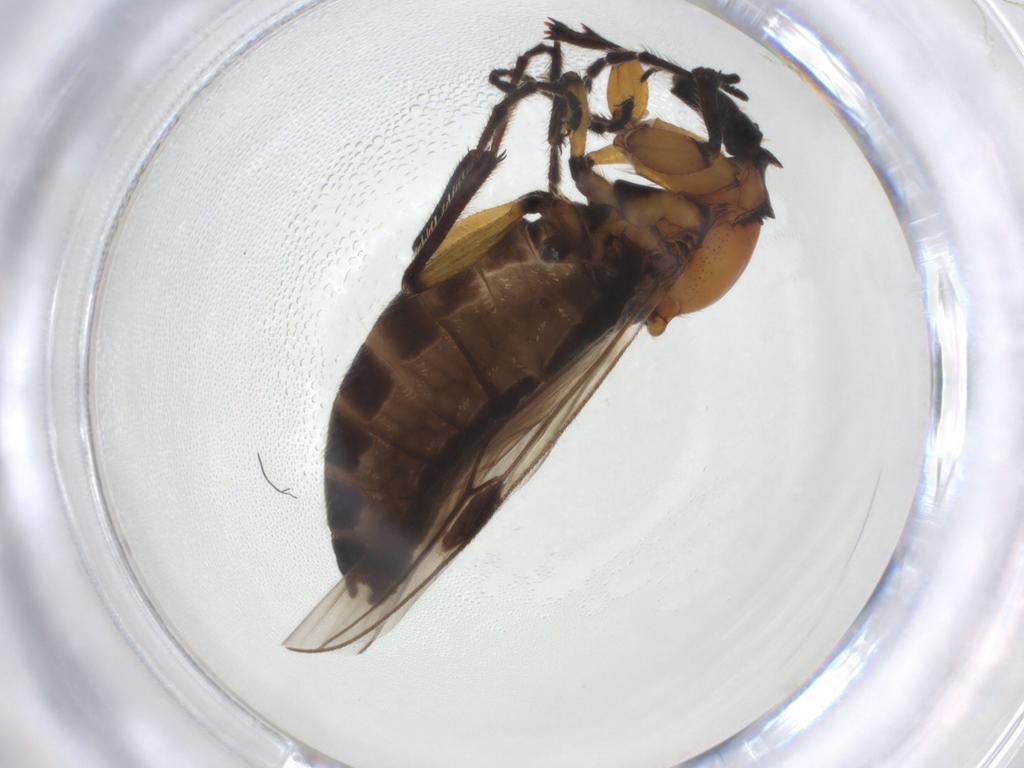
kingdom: Animalia
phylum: Arthropoda
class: Insecta
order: Diptera
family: Bibionidae
